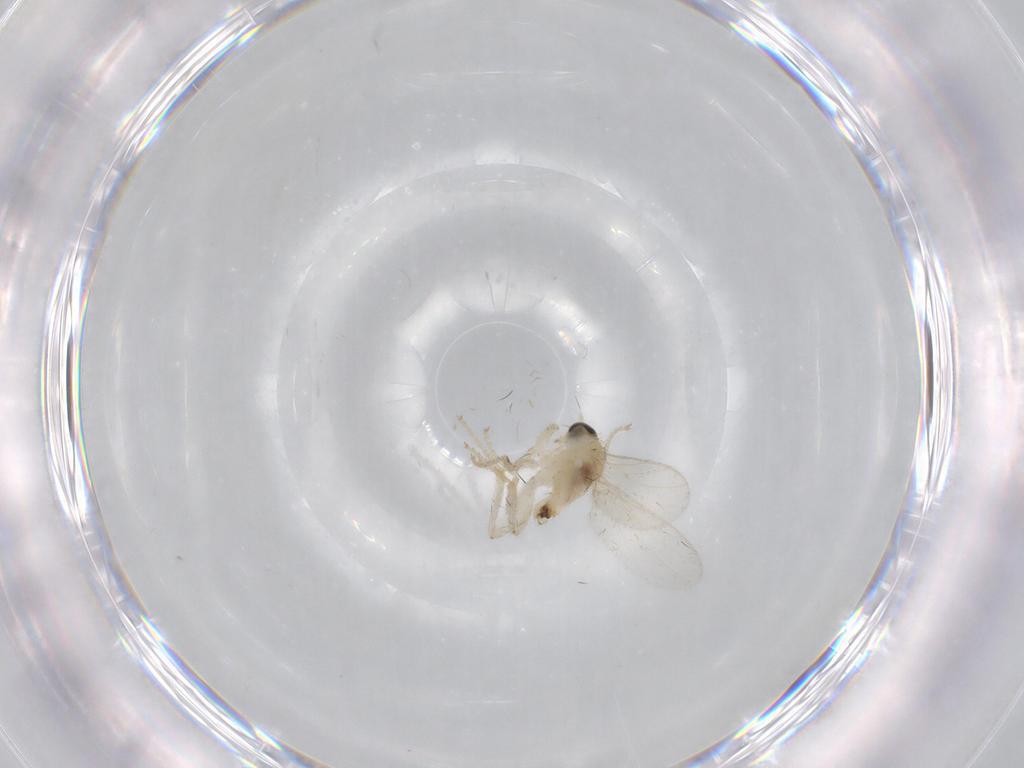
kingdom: Animalia
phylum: Arthropoda
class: Insecta
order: Diptera
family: Hybotidae
